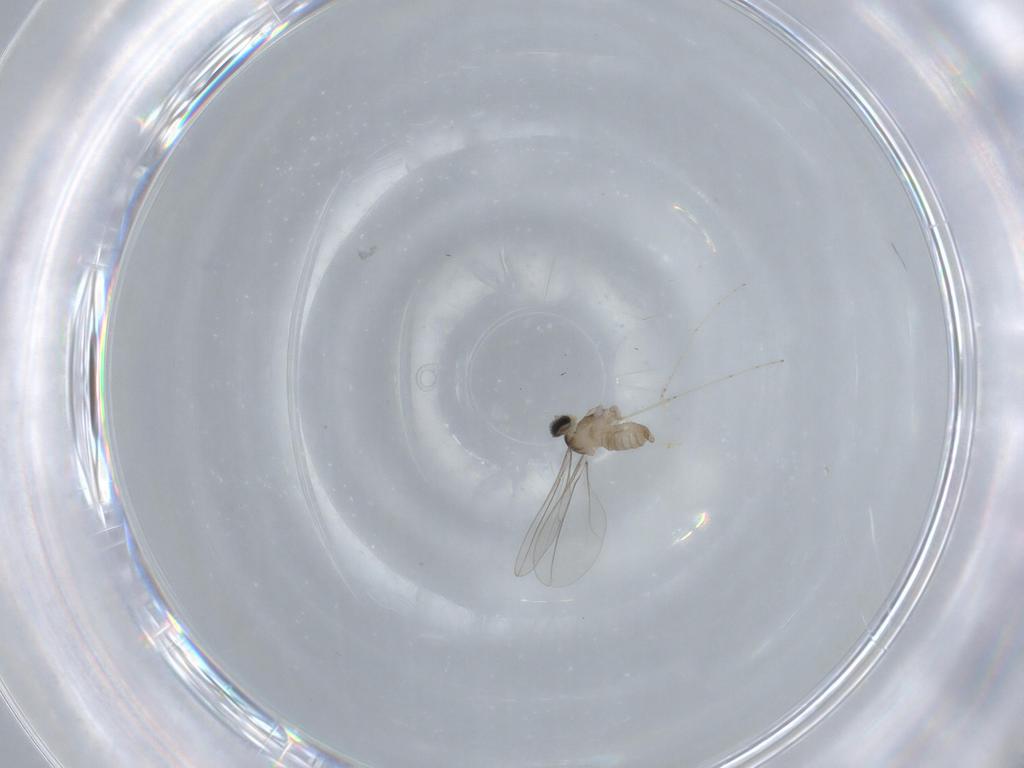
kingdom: Animalia
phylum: Arthropoda
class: Insecta
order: Diptera
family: Cecidomyiidae
